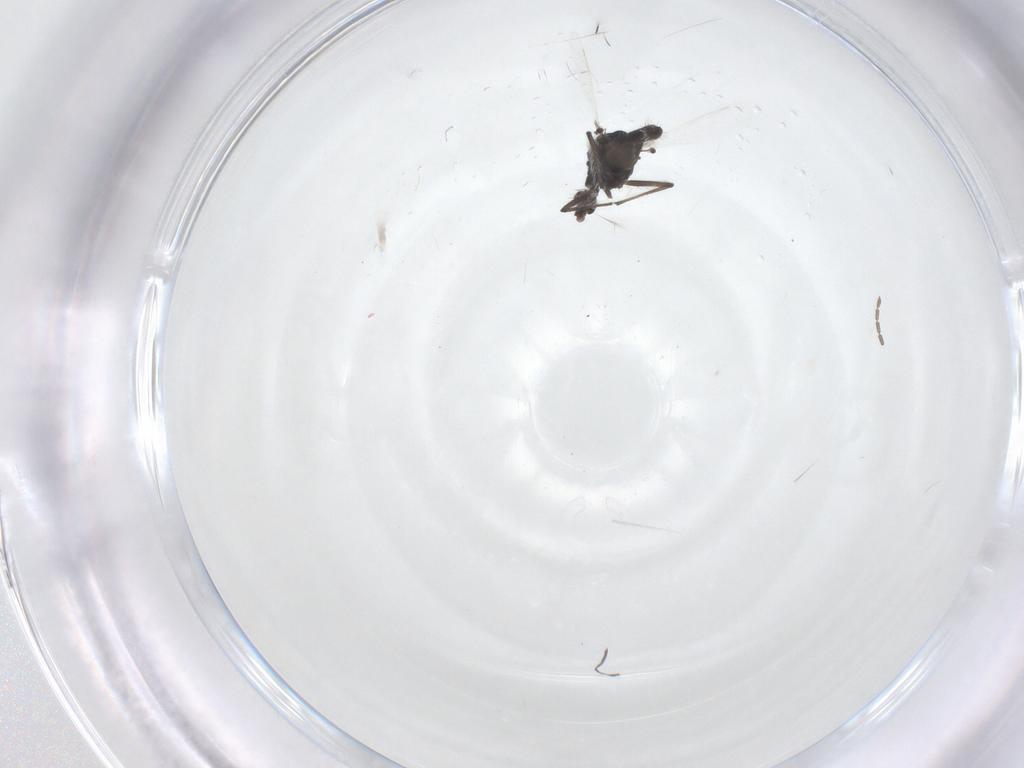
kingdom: Animalia
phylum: Arthropoda
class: Insecta
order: Diptera
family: Chironomidae
